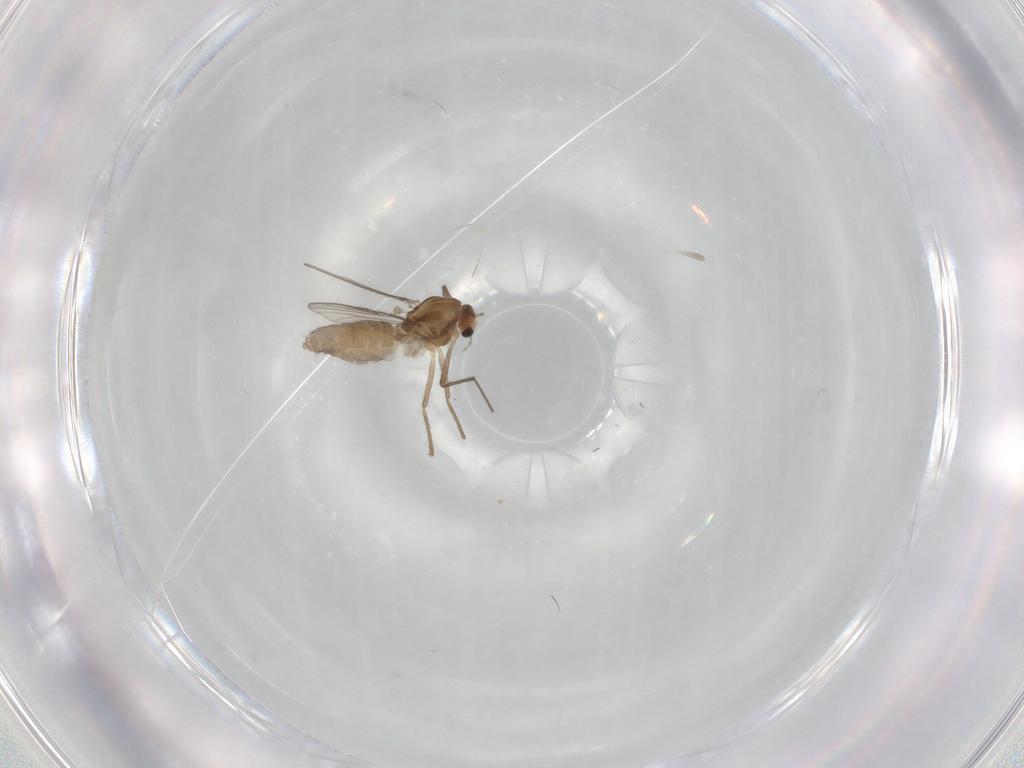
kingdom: Animalia
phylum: Arthropoda
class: Insecta
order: Diptera
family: Chironomidae
